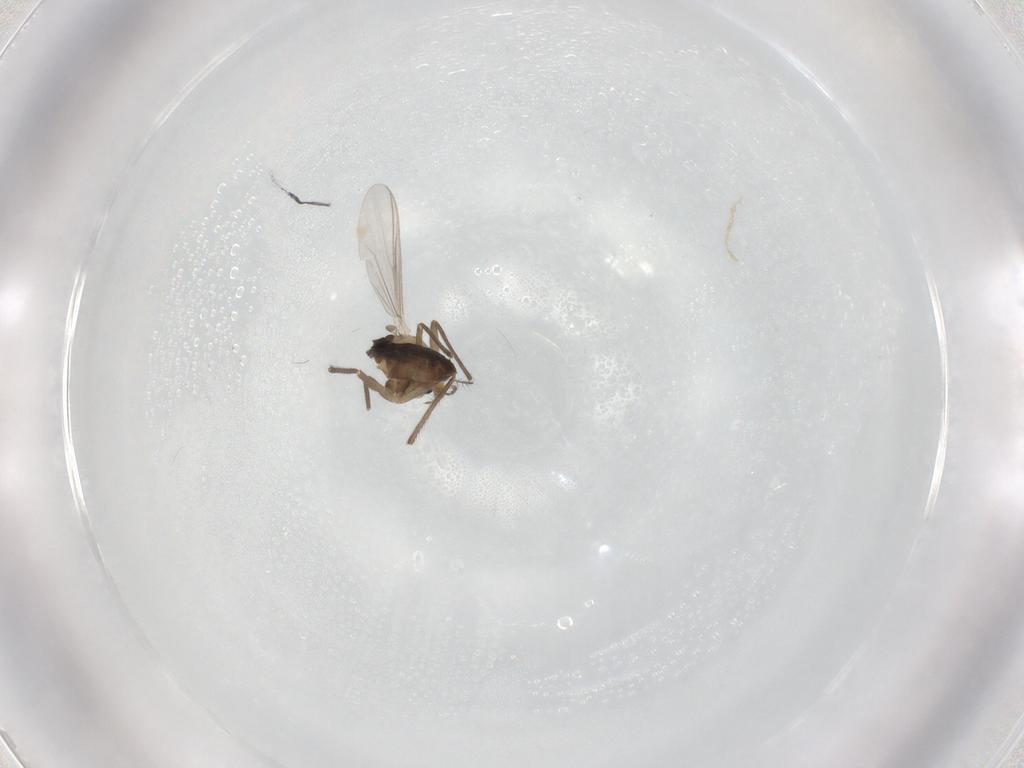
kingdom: Animalia
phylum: Arthropoda
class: Insecta
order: Diptera
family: Chironomidae
